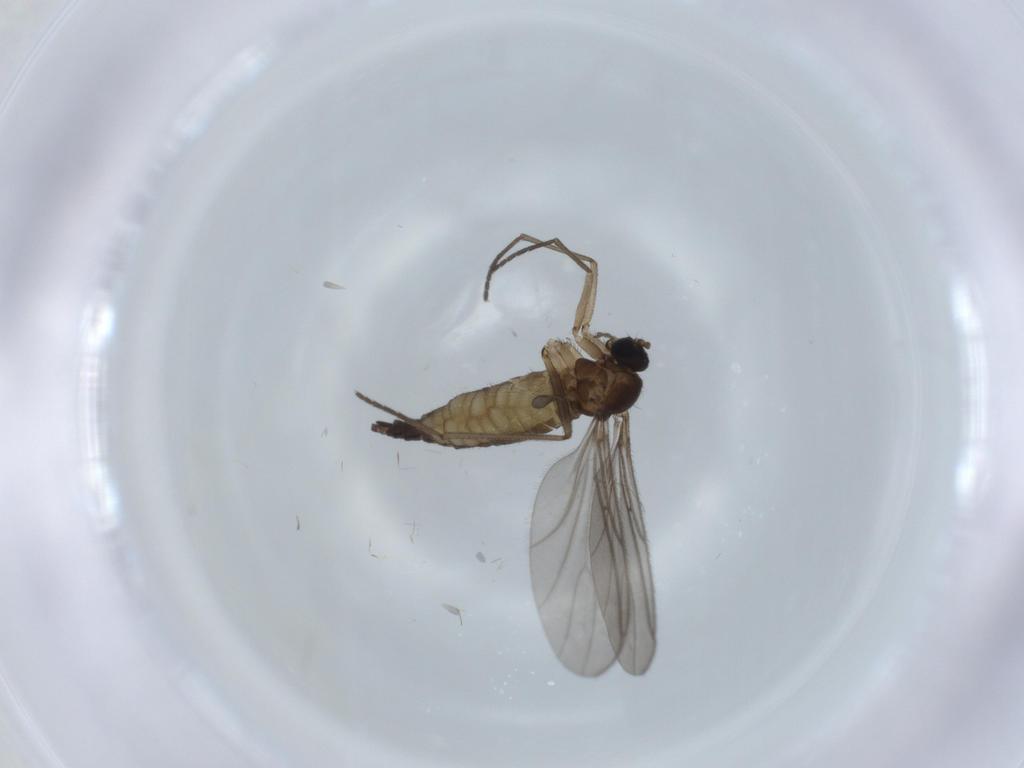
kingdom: Animalia
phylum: Arthropoda
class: Insecta
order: Diptera
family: Sciaridae
